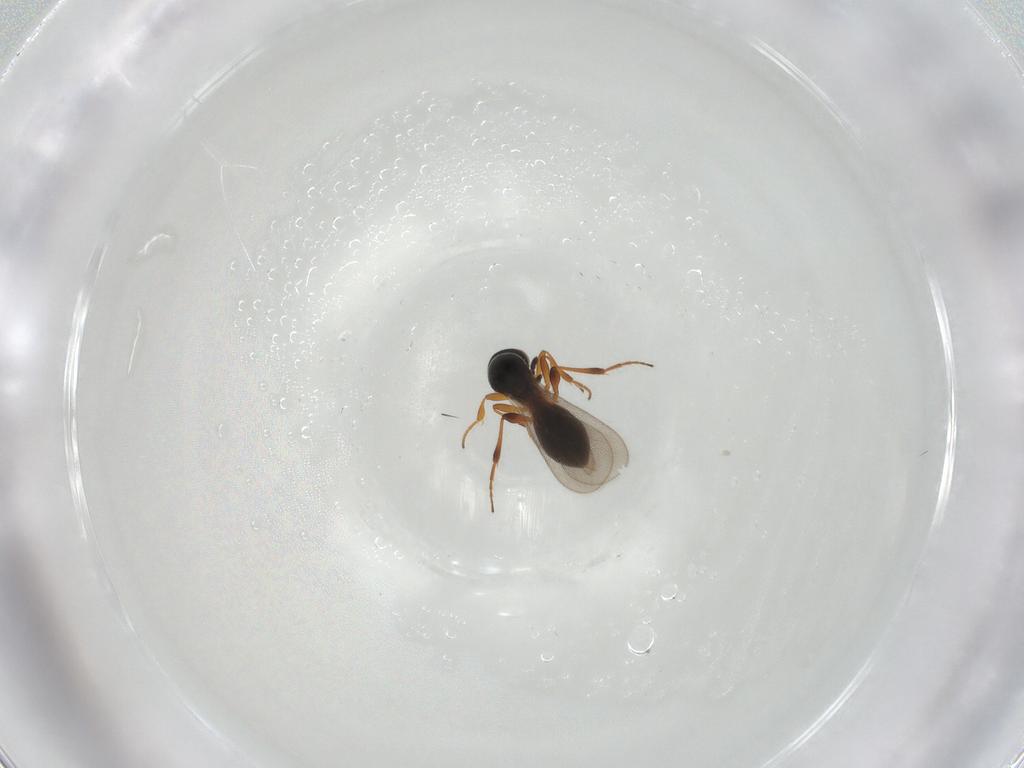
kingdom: Animalia
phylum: Arthropoda
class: Insecta
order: Hymenoptera
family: Platygastridae
